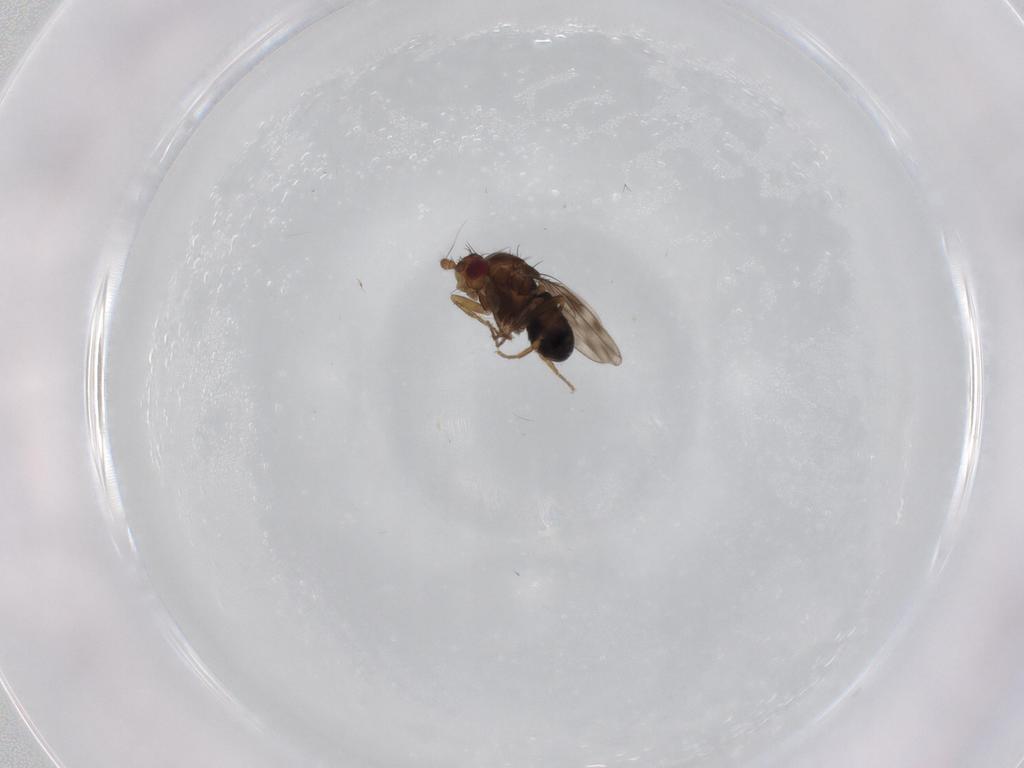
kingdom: Animalia
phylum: Arthropoda
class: Insecta
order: Diptera
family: Sphaeroceridae
